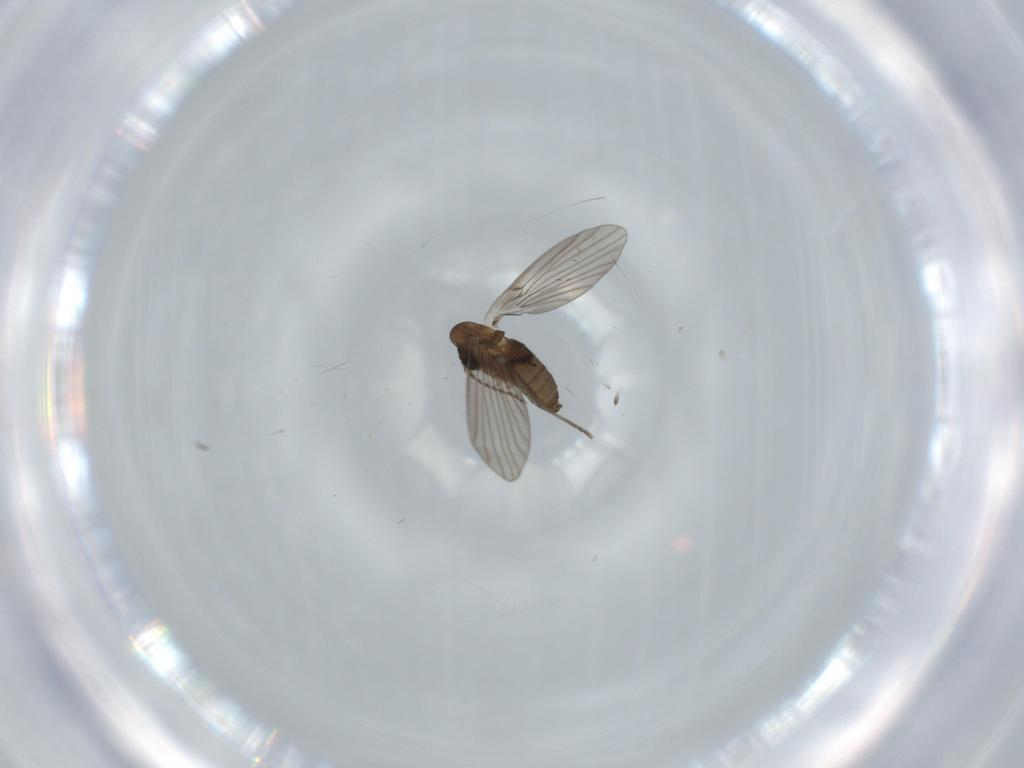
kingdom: Animalia
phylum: Arthropoda
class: Insecta
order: Diptera
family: Psychodidae
